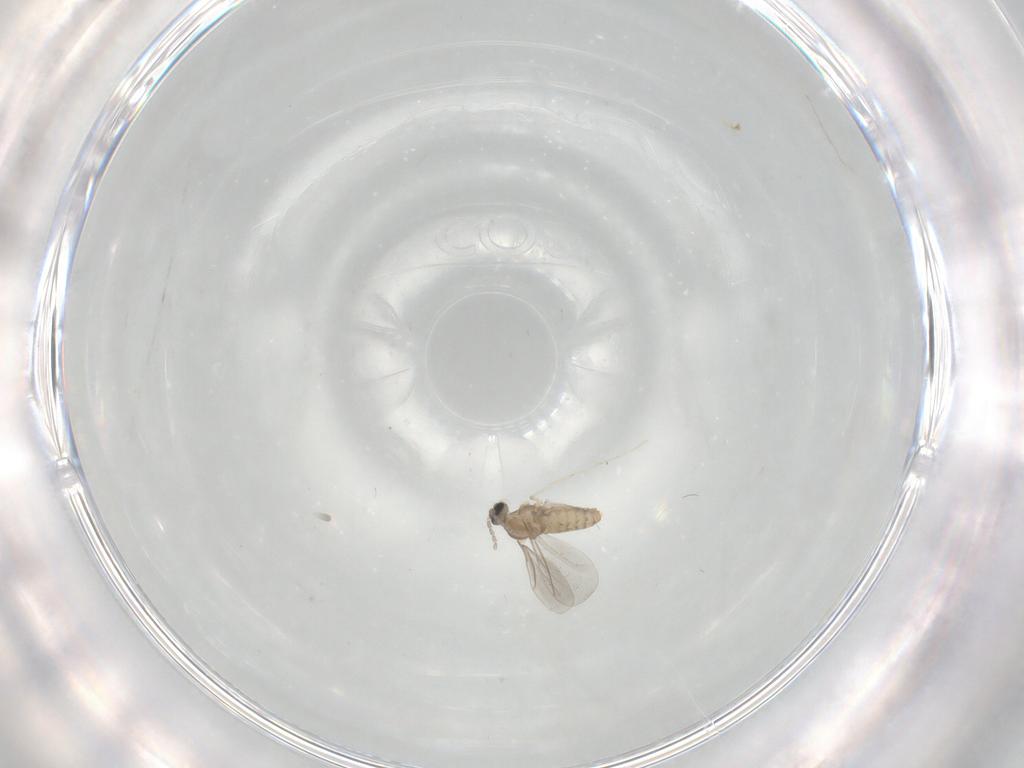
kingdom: Animalia
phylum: Arthropoda
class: Insecta
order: Diptera
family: Cecidomyiidae
